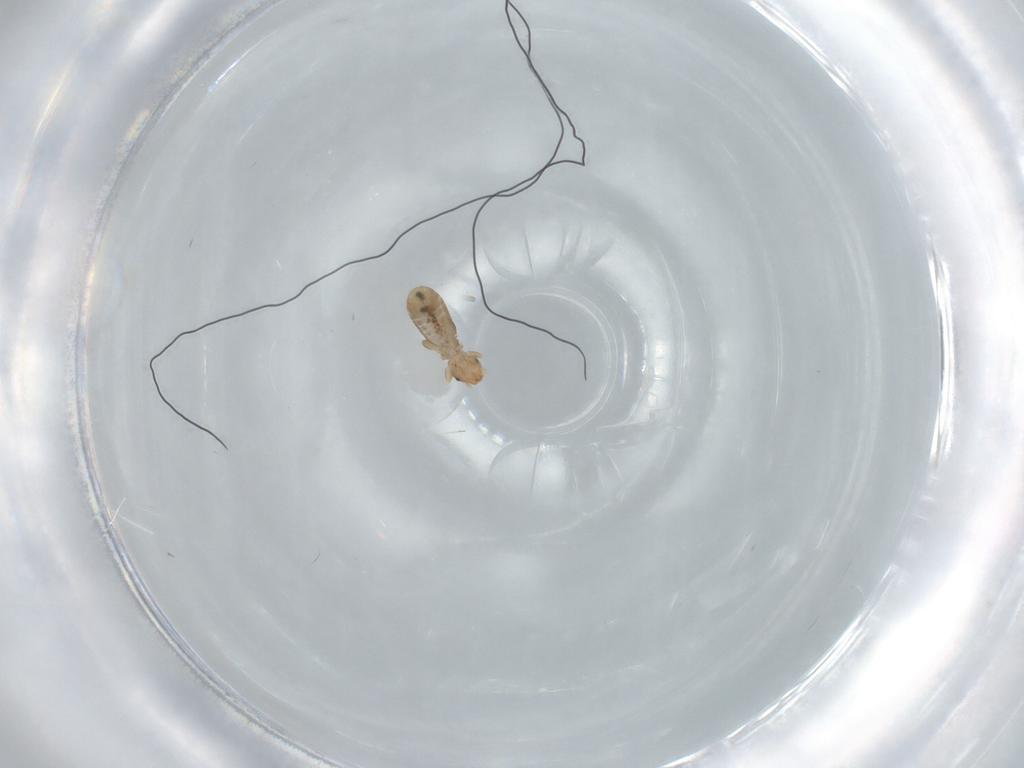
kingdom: Animalia
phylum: Arthropoda
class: Insecta
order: Psocodea
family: Liposcelididae
